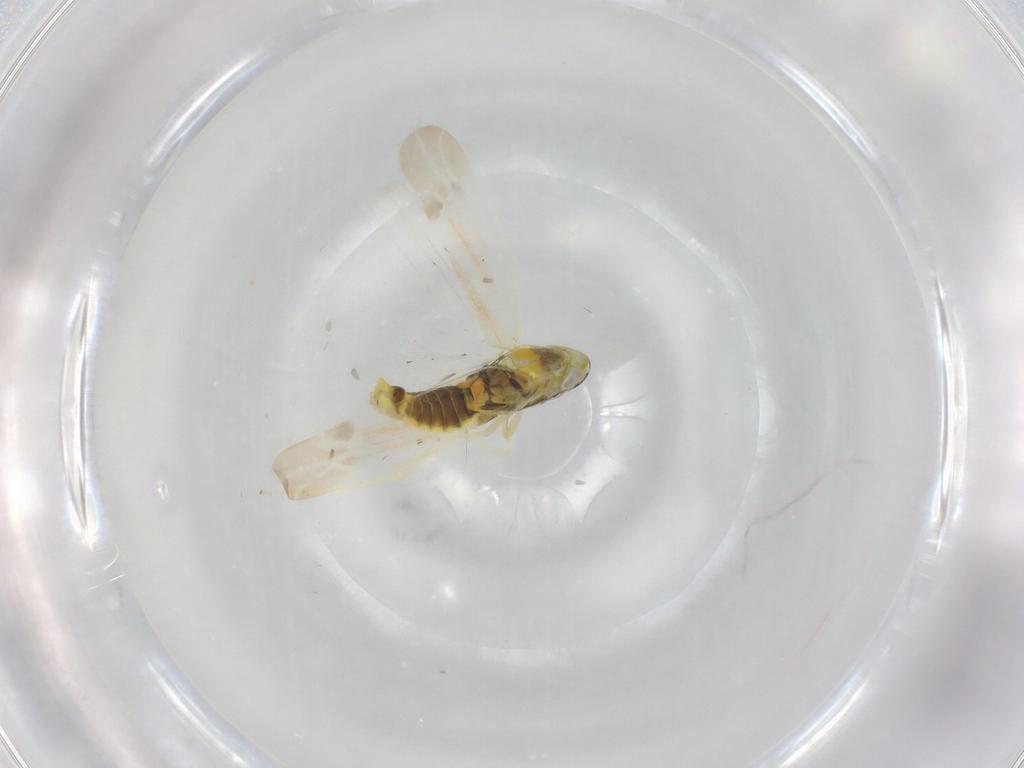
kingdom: Animalia
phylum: Arthropoda
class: Insecta
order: Hemiptera
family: Cicadellidae
